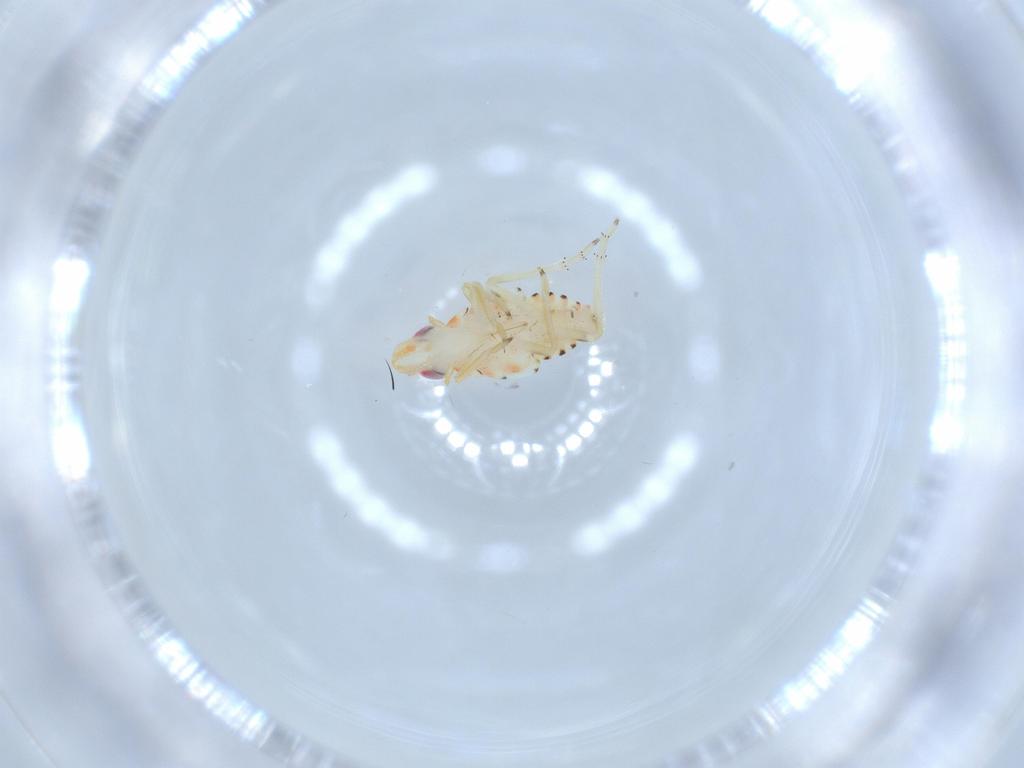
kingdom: Animalia
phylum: Arthropoda
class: Insecta
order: Hemiptera
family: Tropiduchidae
